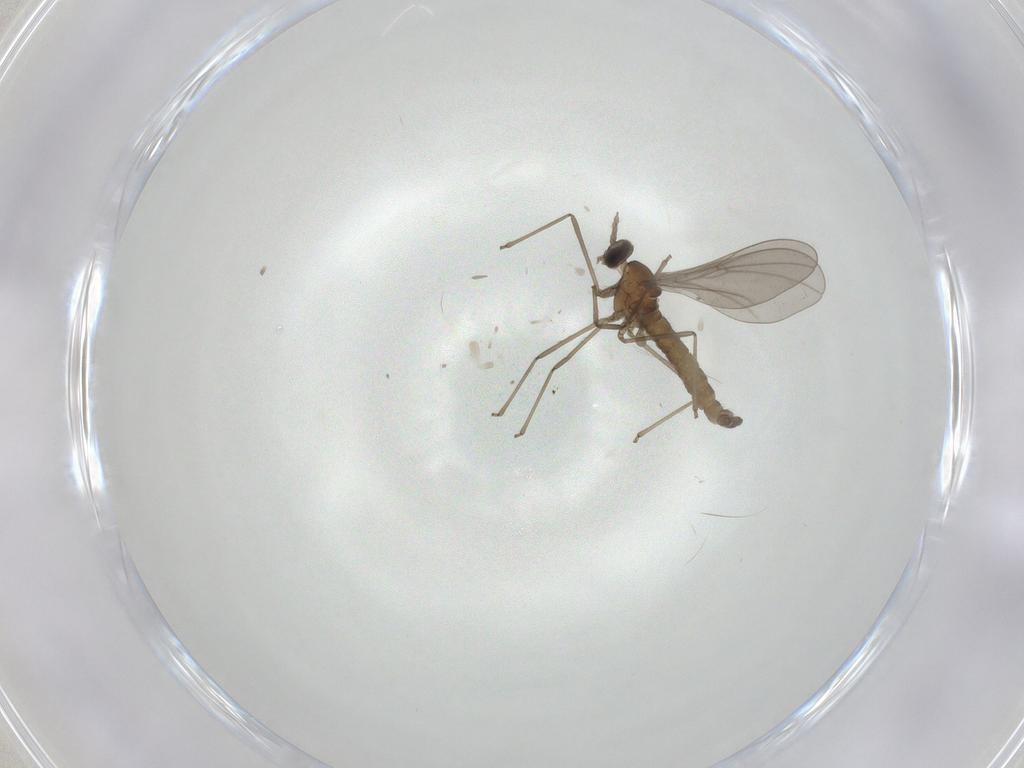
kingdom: Animalia
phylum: Arthropoda
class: Insecta
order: Diptera
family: Cecidomyiidae
